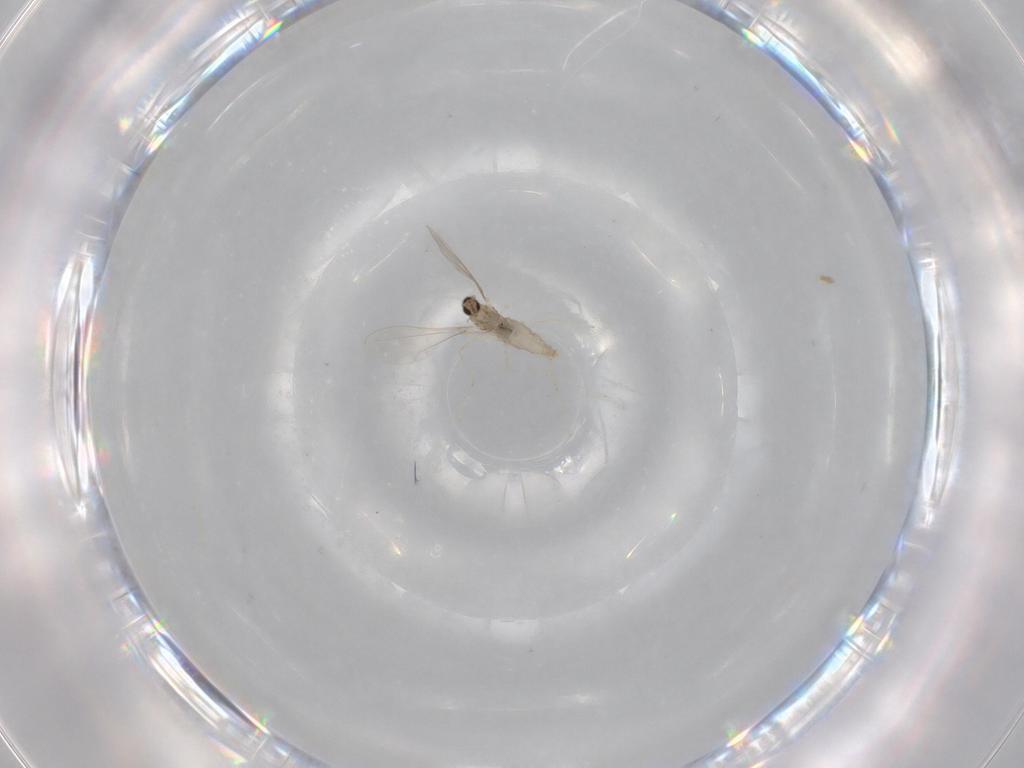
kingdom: Animalia
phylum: Arthropoda
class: Insecta
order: Diptera
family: Cecidomyiidae
